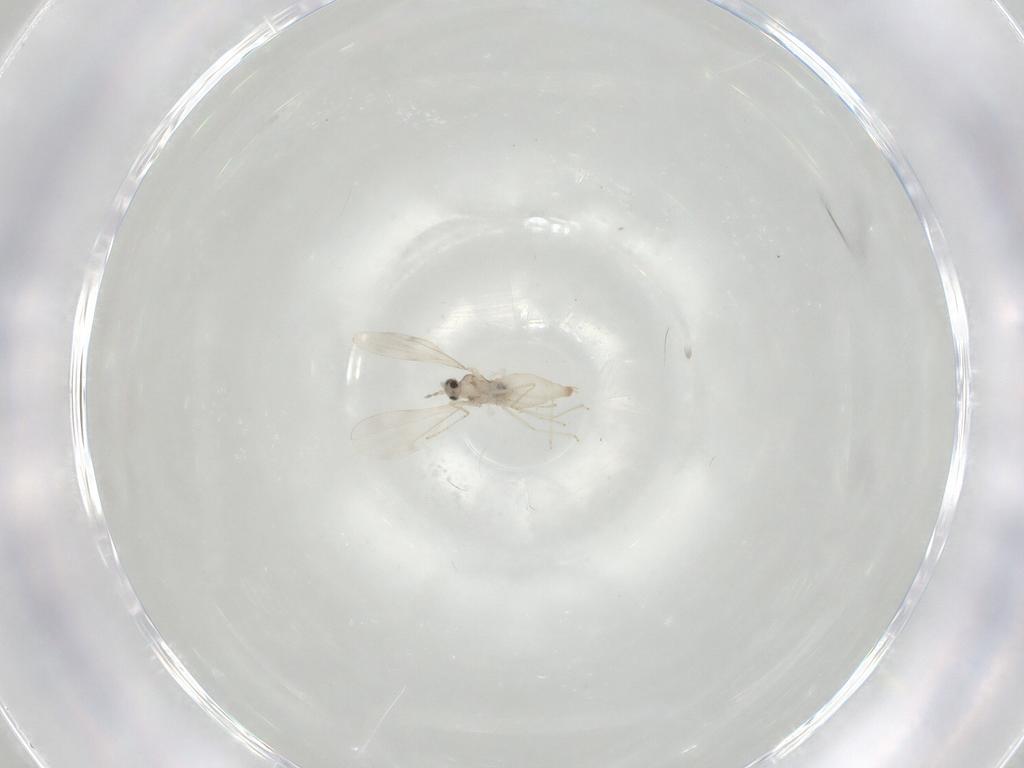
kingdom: Animalia
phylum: Arthropoda
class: Insecta
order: Diptera
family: Cecidomyiidae
